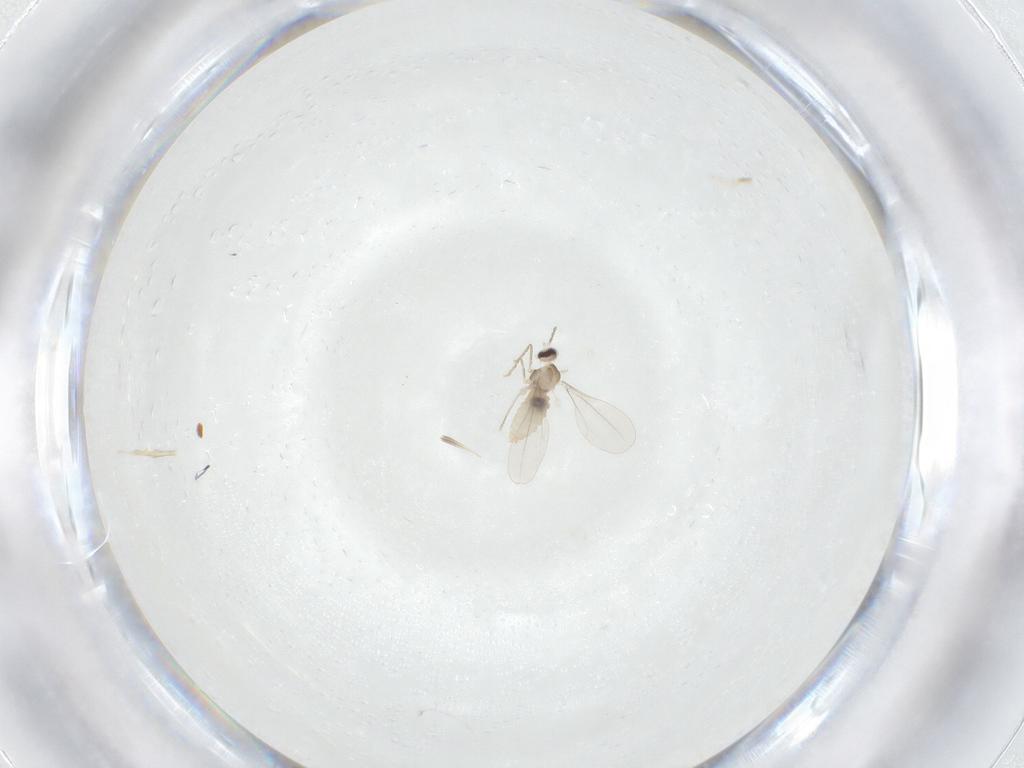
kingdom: Animalia
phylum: Arthropoda
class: Insecta
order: Diptera
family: Cecidomyiidae
